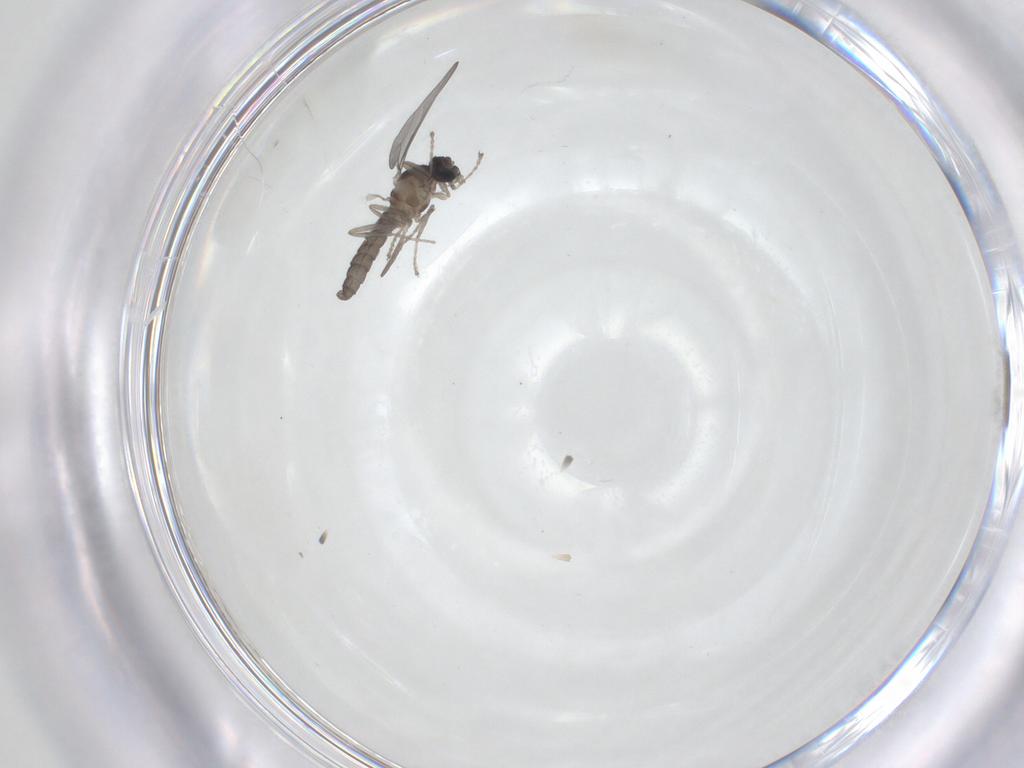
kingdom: Animalia
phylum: Arthropoda
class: Insecta
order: Diptera
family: Cecidomyiidae
